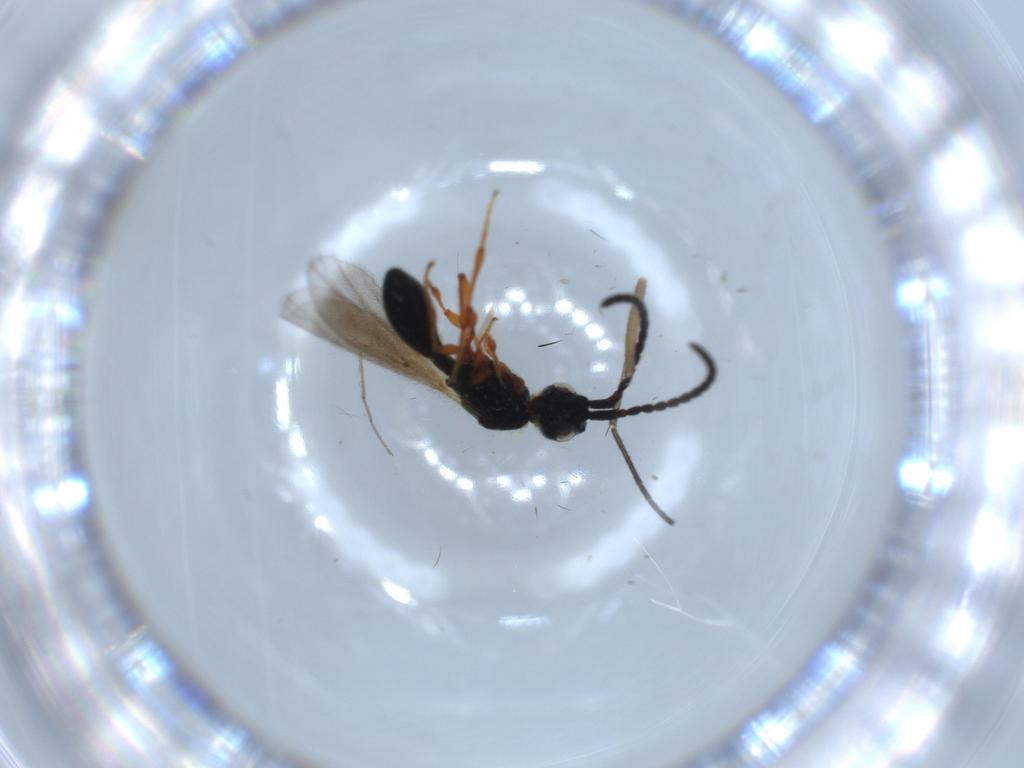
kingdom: Animalia
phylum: Arthropoda
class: Insecta
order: Hymenoptera
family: Diapriidae
